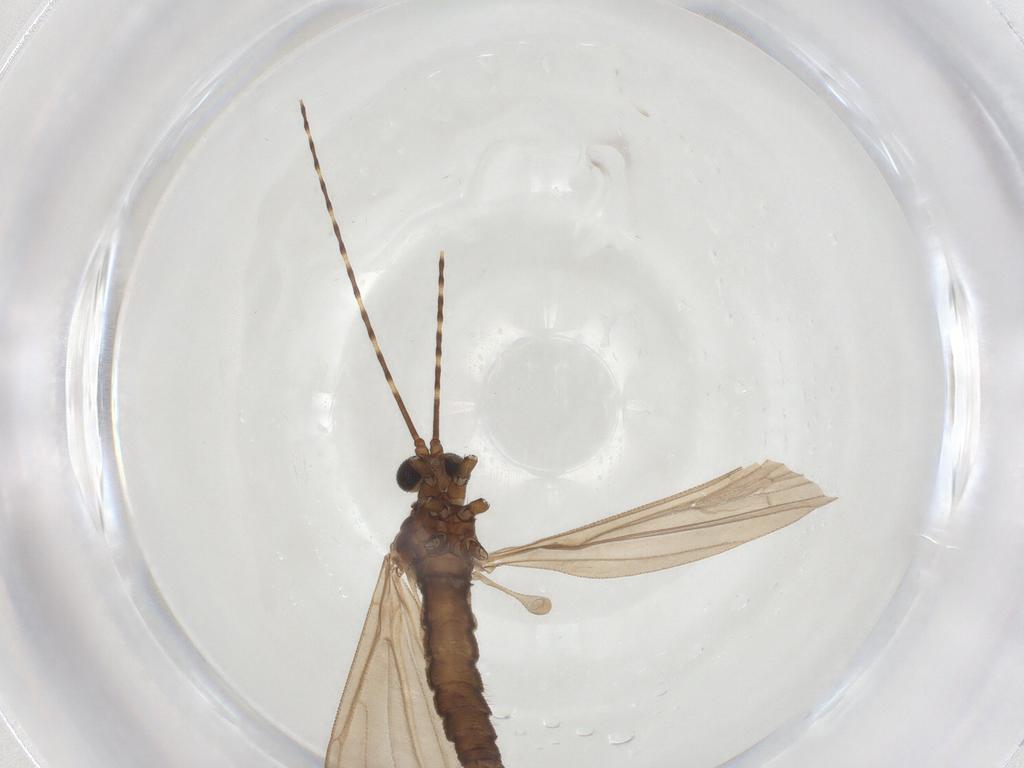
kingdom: Animalia
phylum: Arthropoda
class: Insecta
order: Diptera
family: Limoniidae
